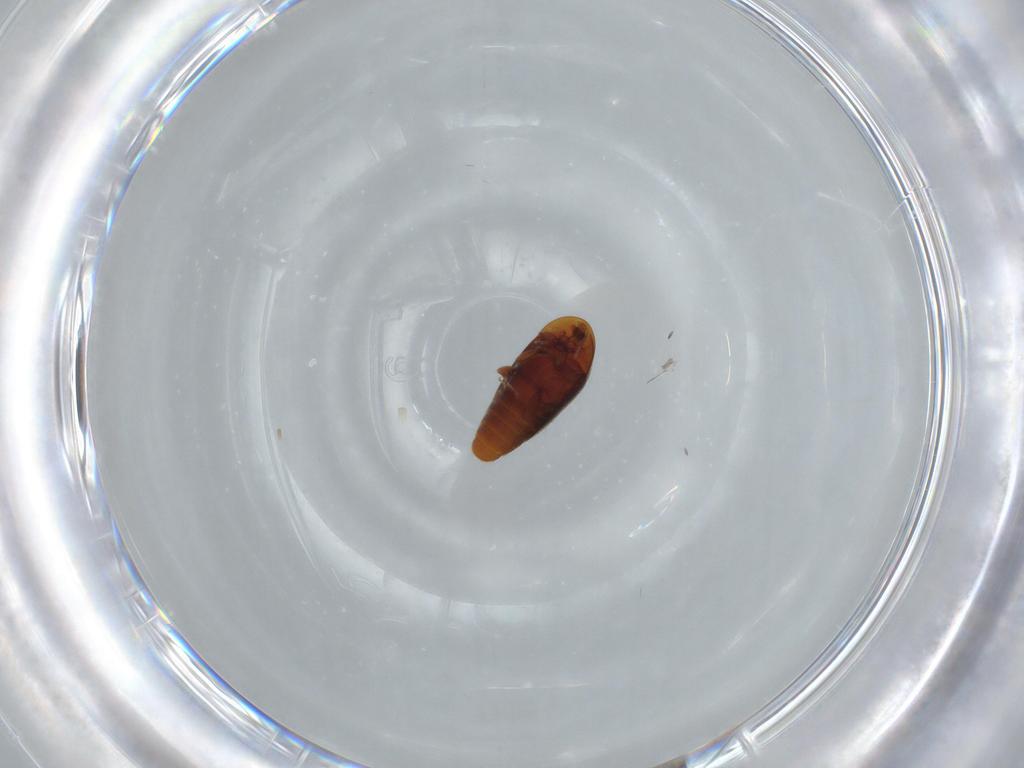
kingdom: Animalia
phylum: Arthropoda
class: Insecta
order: Coleoptera
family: Corylophidae
